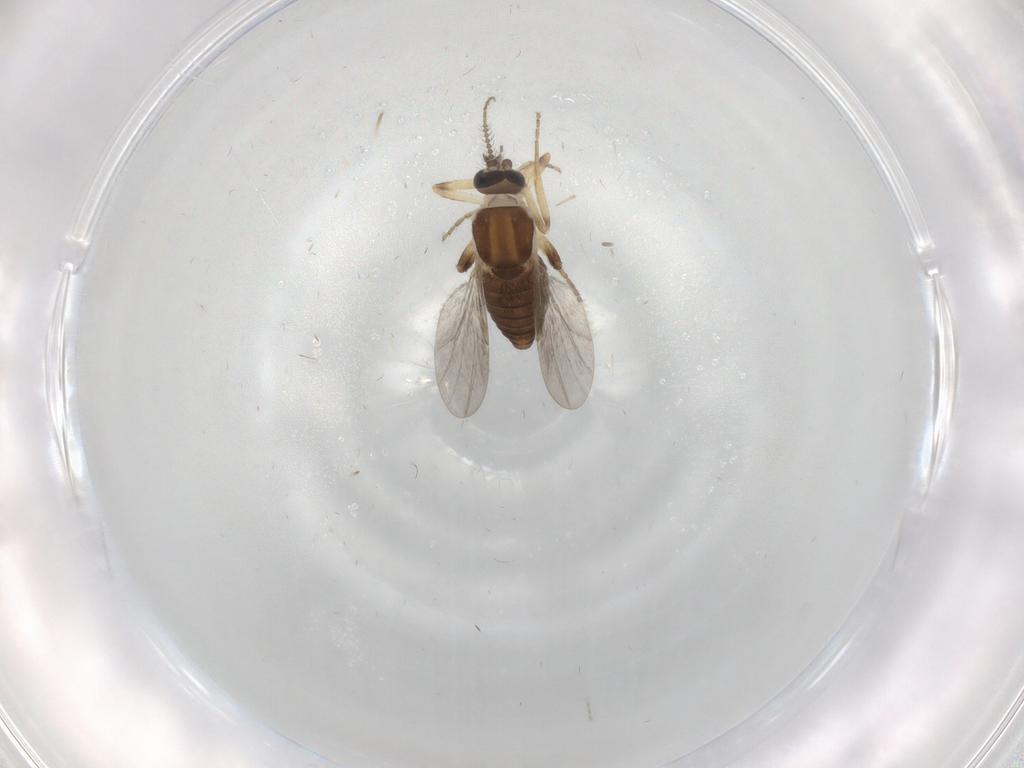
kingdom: Animalia
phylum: Arthropoda
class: Insecta
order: Diptera
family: Ceratopogonidae
